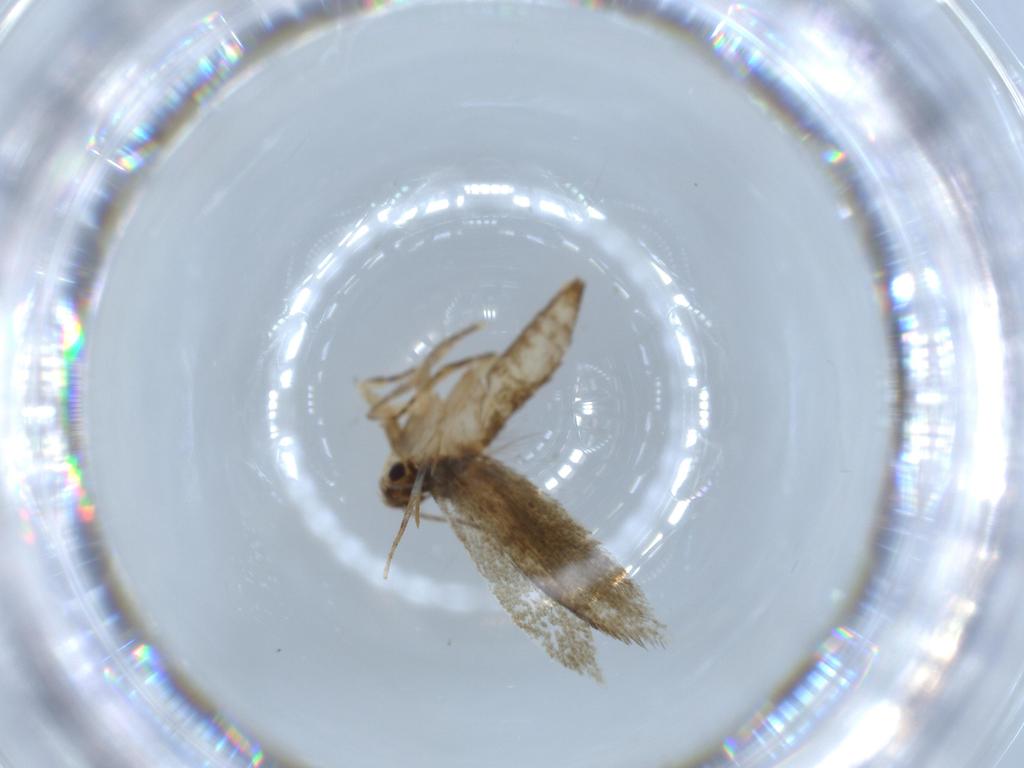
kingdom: Animalia
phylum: Arthropoda
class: Insecta
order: Lepidoptera
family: Tineidae
